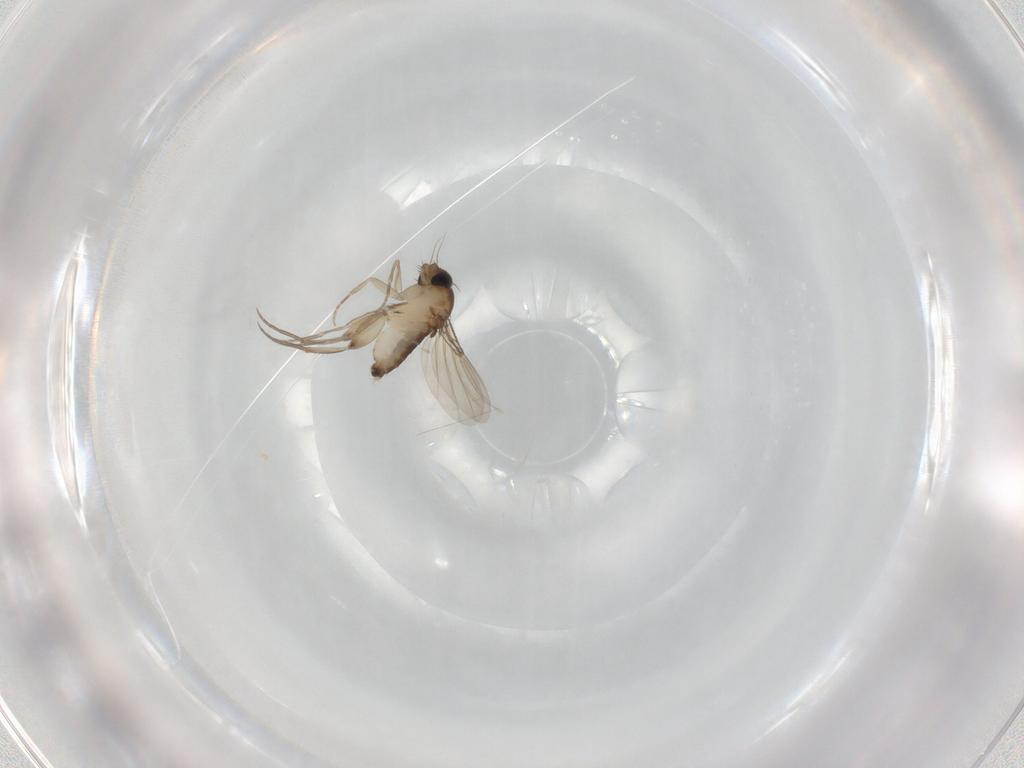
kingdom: Animalia
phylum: Arthropoda
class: Insecta
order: Diptera
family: Phoridae
